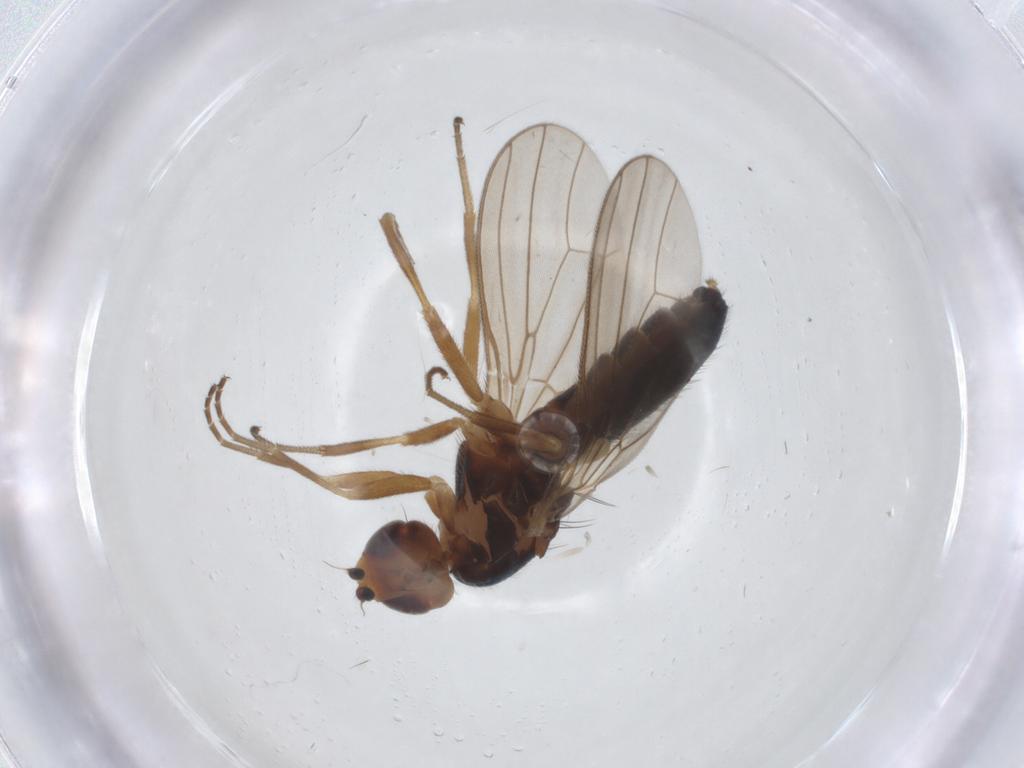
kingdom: Animalia
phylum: Arthropoda
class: Insecta
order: Diptera
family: Psilidae
